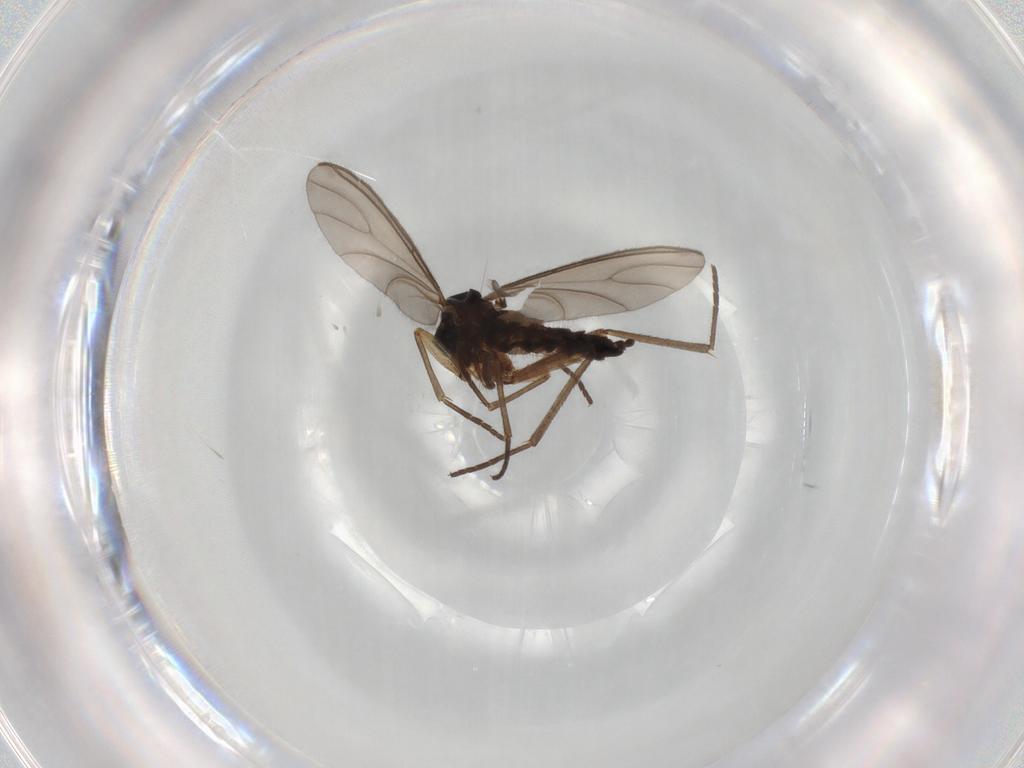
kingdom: Animalia
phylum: Arthropoda
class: Insecta
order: Diptera
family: Sciaridae
